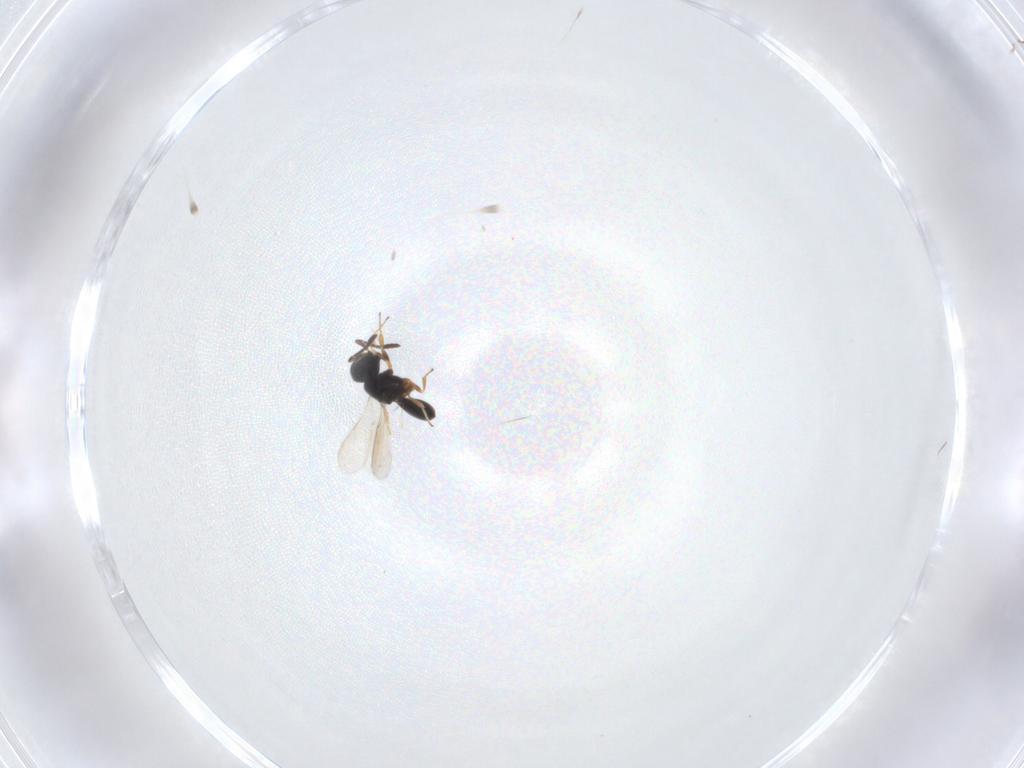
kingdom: Animalia
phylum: Arthropoda
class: Insecta
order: Hymenoptera
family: Scelionidae
